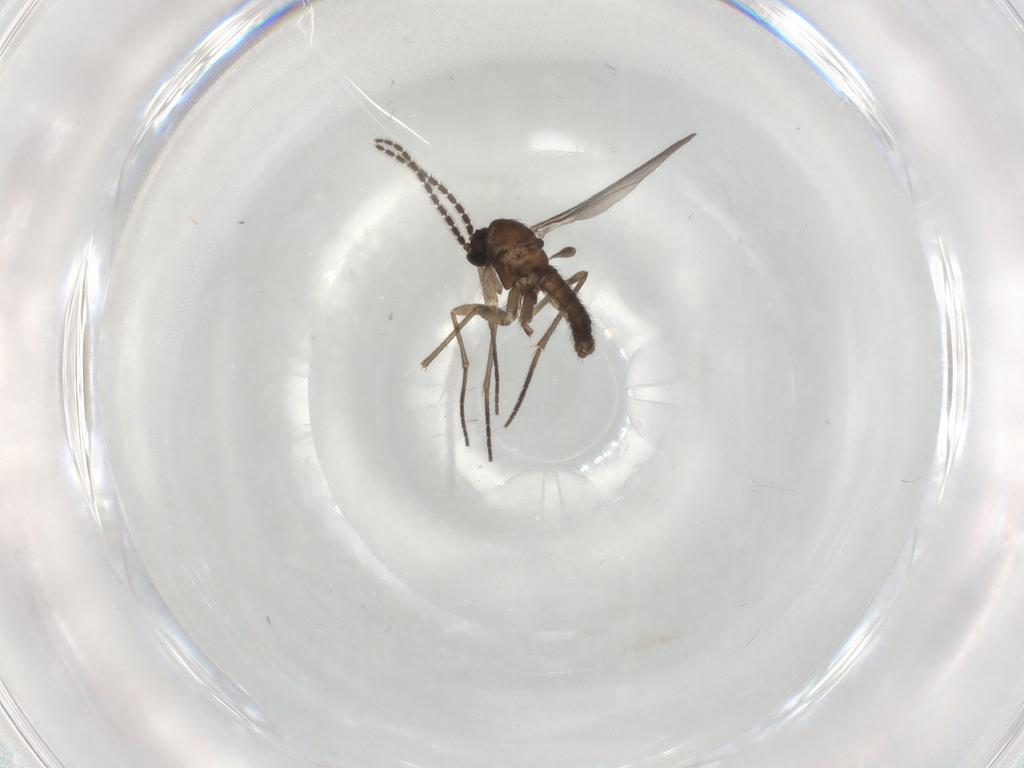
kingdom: Animalia
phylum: Arthropoda
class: Insecta
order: Diptera
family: Sciaridae
